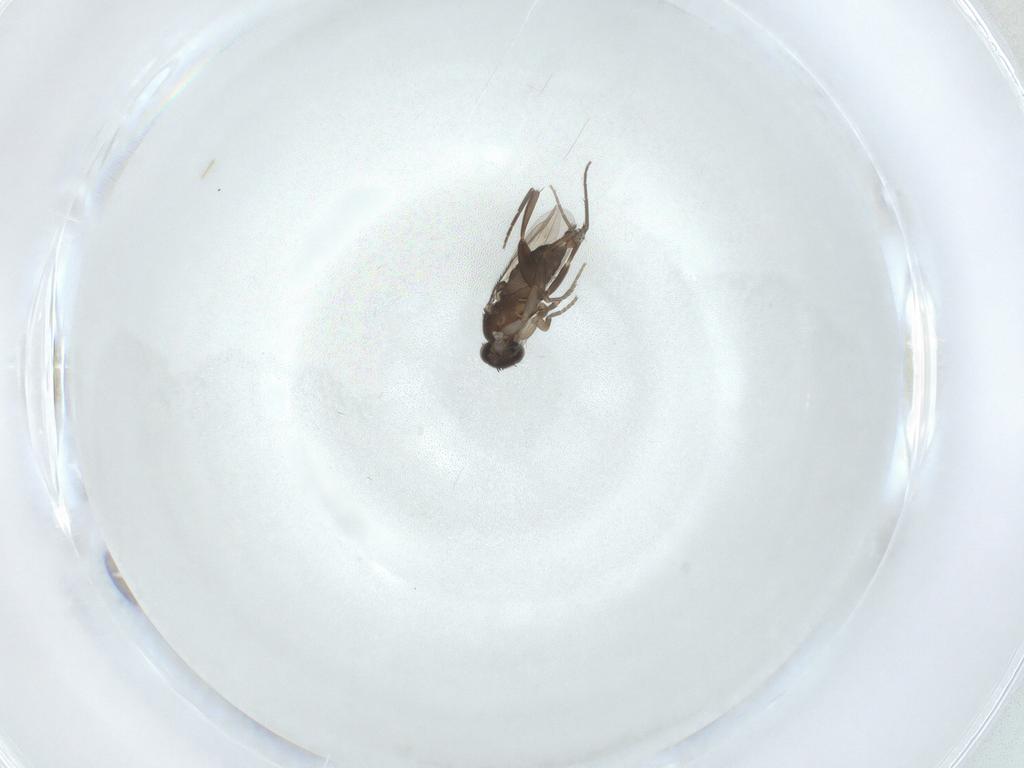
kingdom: Animalia
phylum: Arthropoda
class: Insecta
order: Diptera
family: Phoridae
